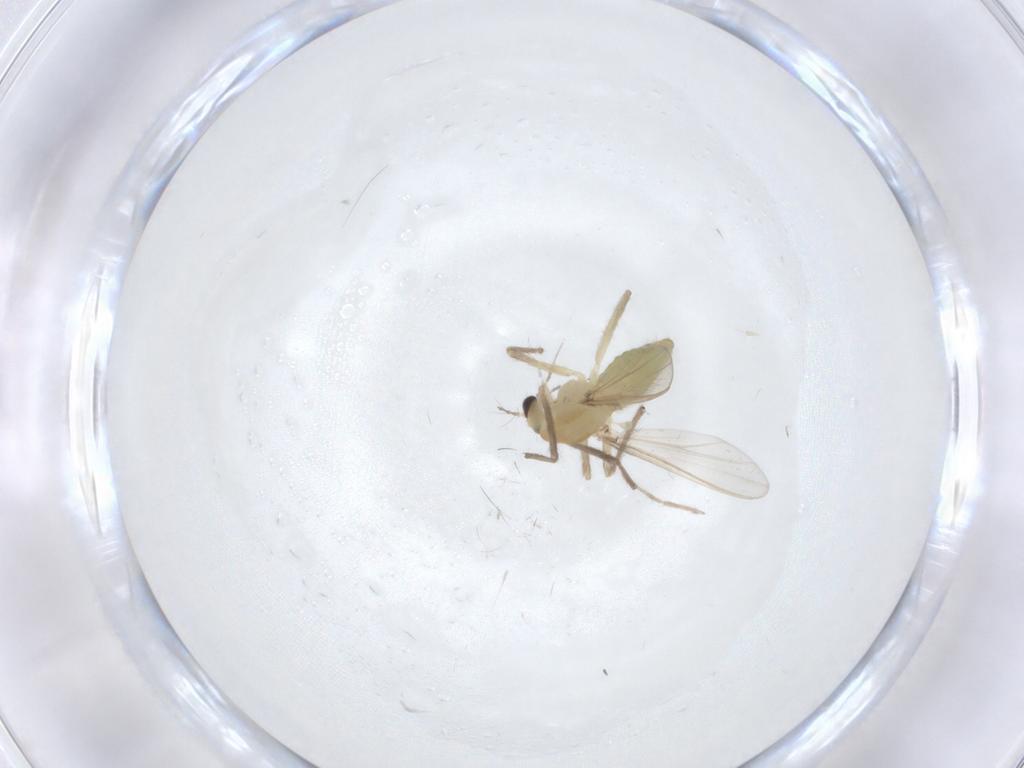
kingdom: Animalia
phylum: Arthropoda
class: Insecta
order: Diptera
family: Chironomidae
